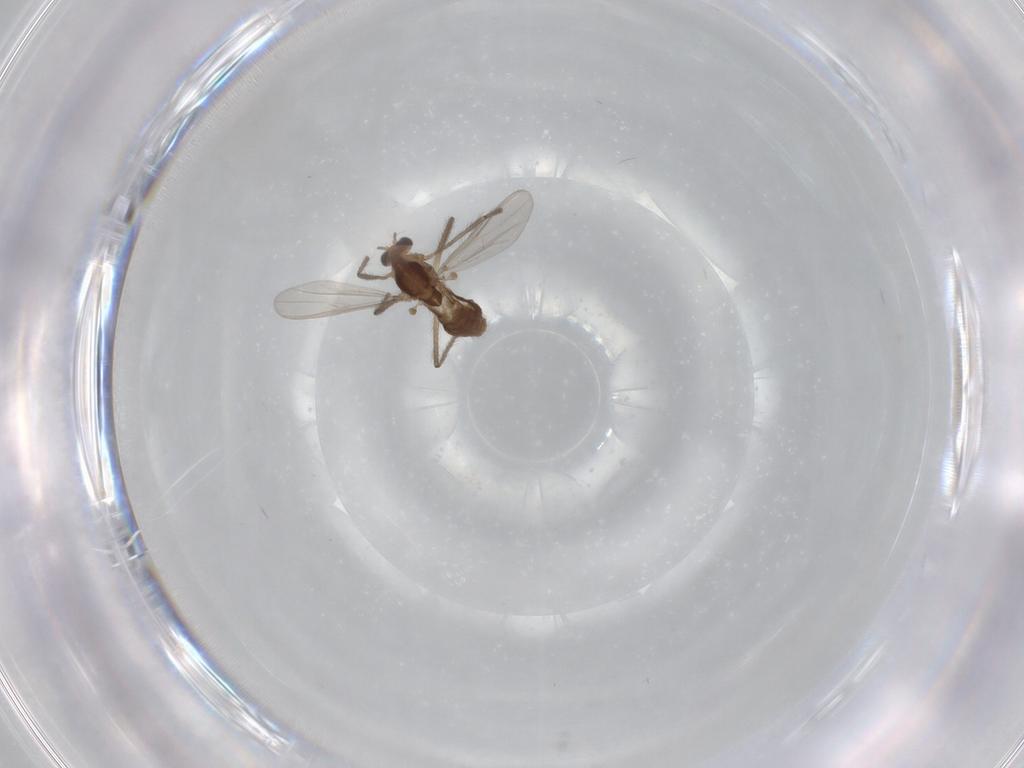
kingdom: Animalia
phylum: Arthropoda
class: Insecta
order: Diptera
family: Chironomidae
